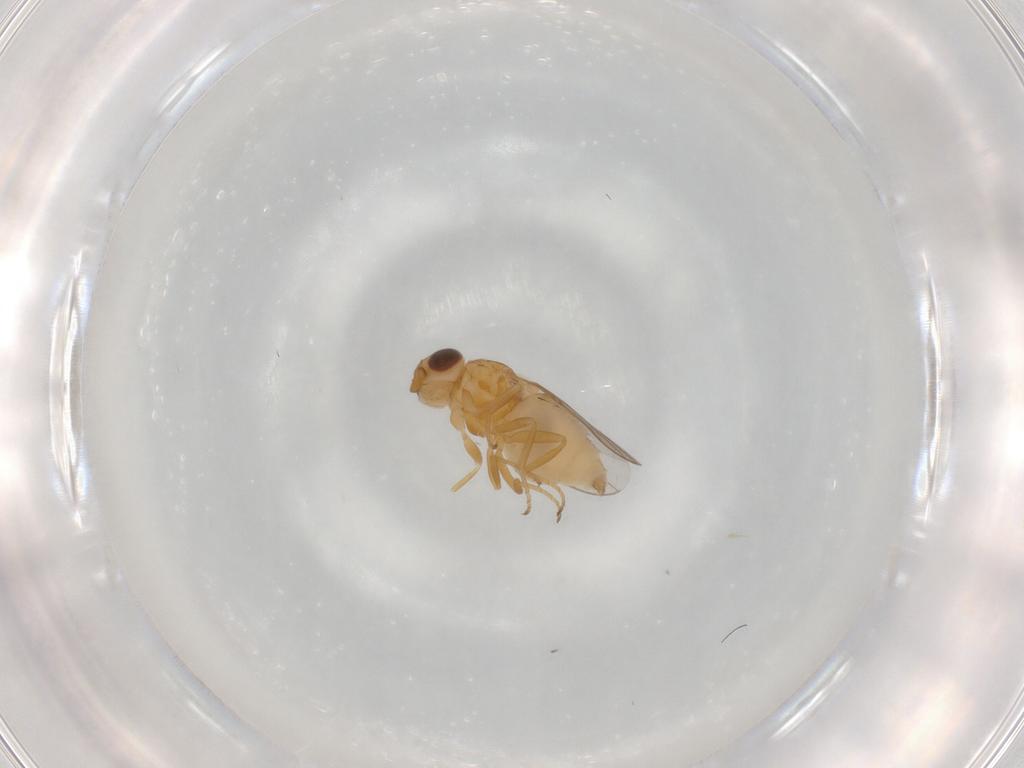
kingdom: Animalia
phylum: Arthropoda
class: Insecta
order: Diptera
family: Chloropidae
